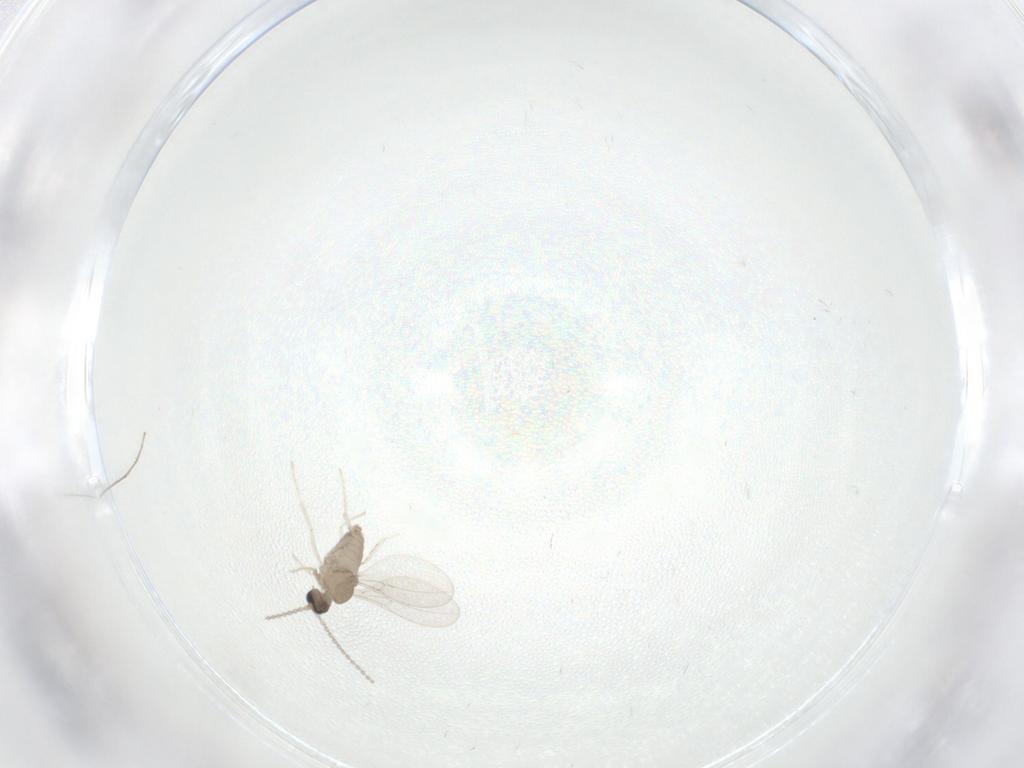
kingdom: Animalia
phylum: Arthropoda
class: Insecta
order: Diptera
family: Cecidomyiidae
